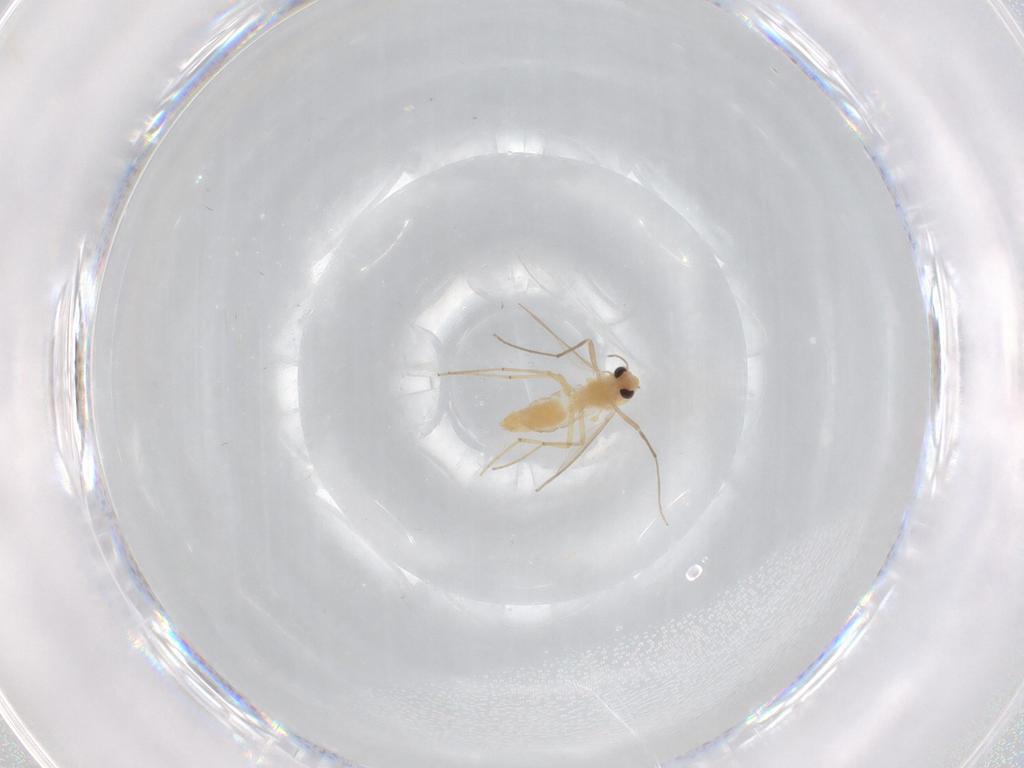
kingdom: Animalia
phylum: Arthropoda
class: Insecta
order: Diptera
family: Chironomidae
